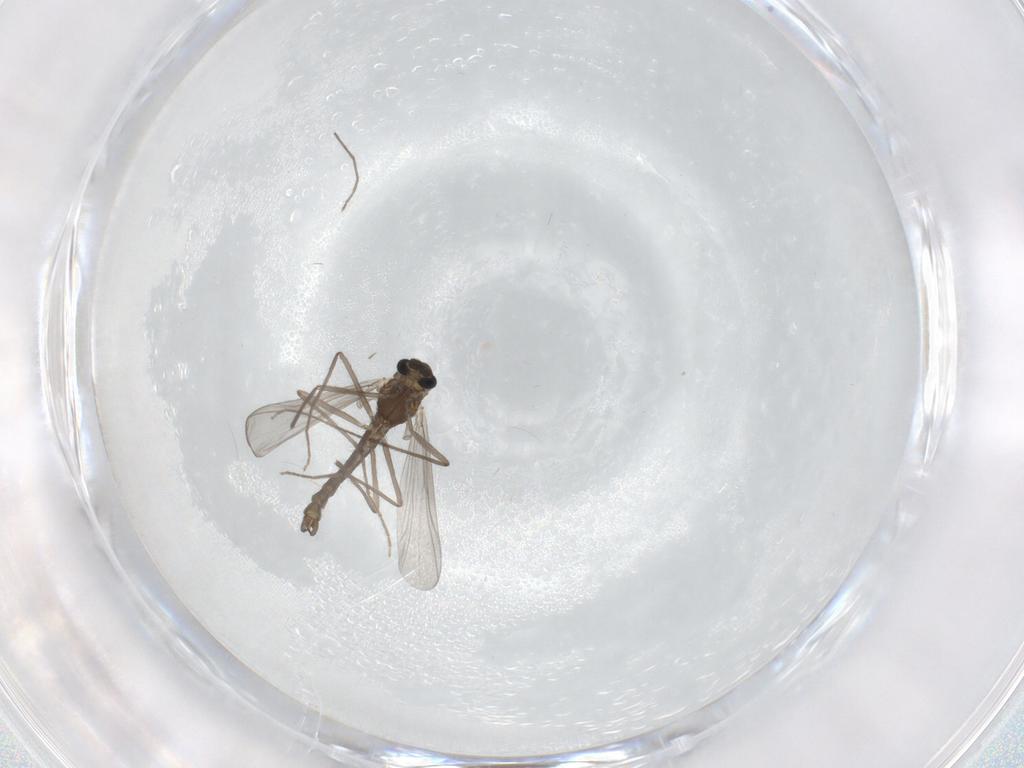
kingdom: Animalia
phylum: Arthropoda
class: Insecta
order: Diptera
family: Chironomidae
